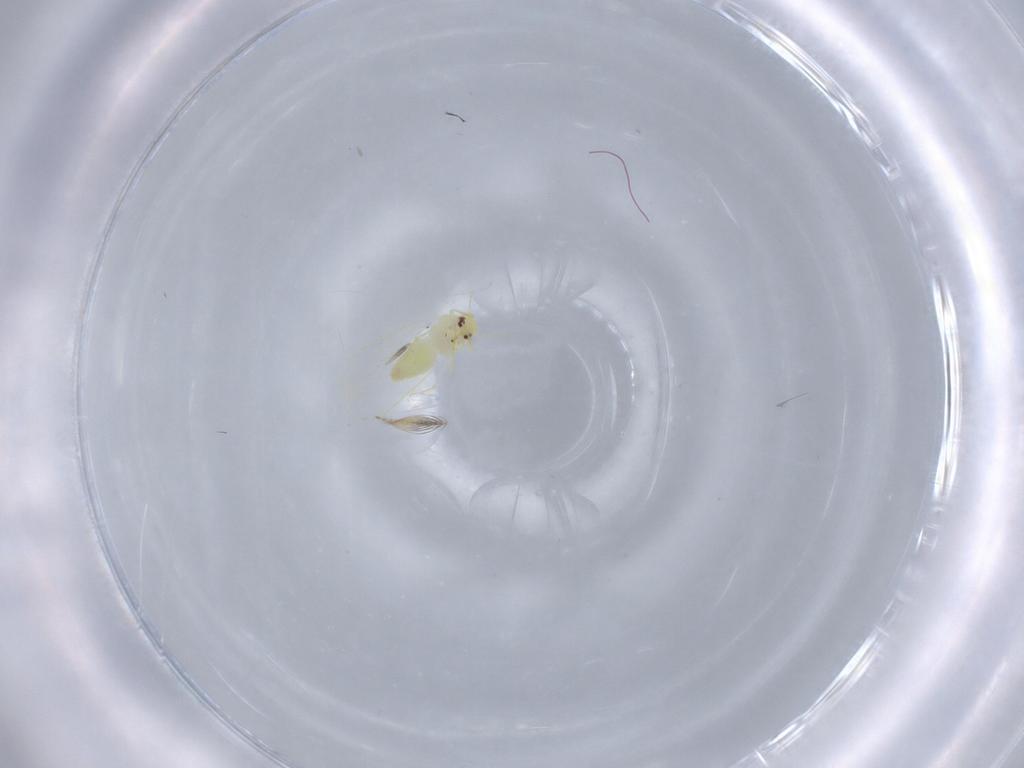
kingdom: Animalia
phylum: Arthropoda
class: Insecta
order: Hemiptera
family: Aleyrodidae
